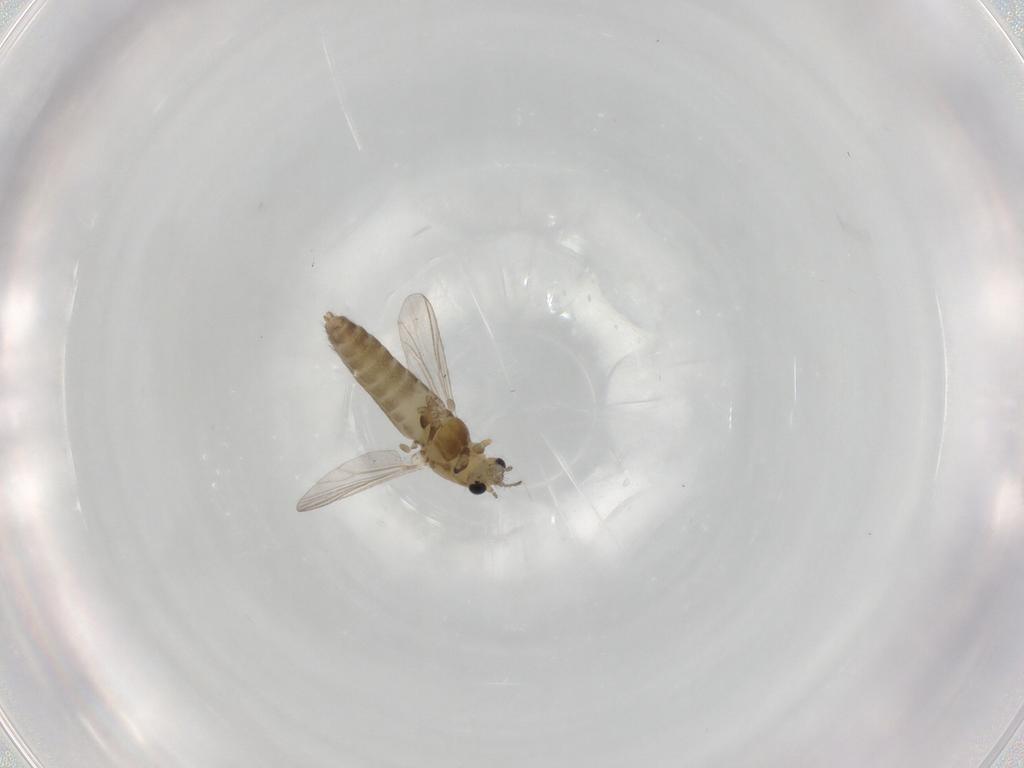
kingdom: Animalia
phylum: Arthropoda
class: Insecta
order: Diptera
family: Chironomidae
